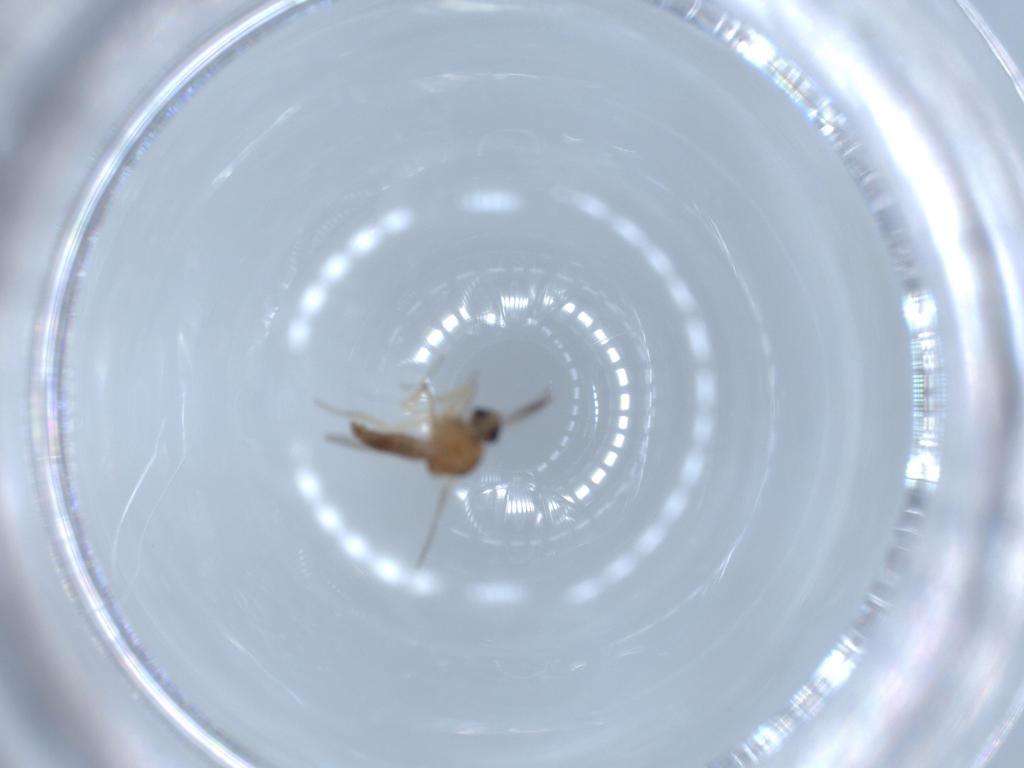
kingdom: Animalia
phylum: Arthropoda
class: Insecta
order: Diptera
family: Ceratopogonidae
